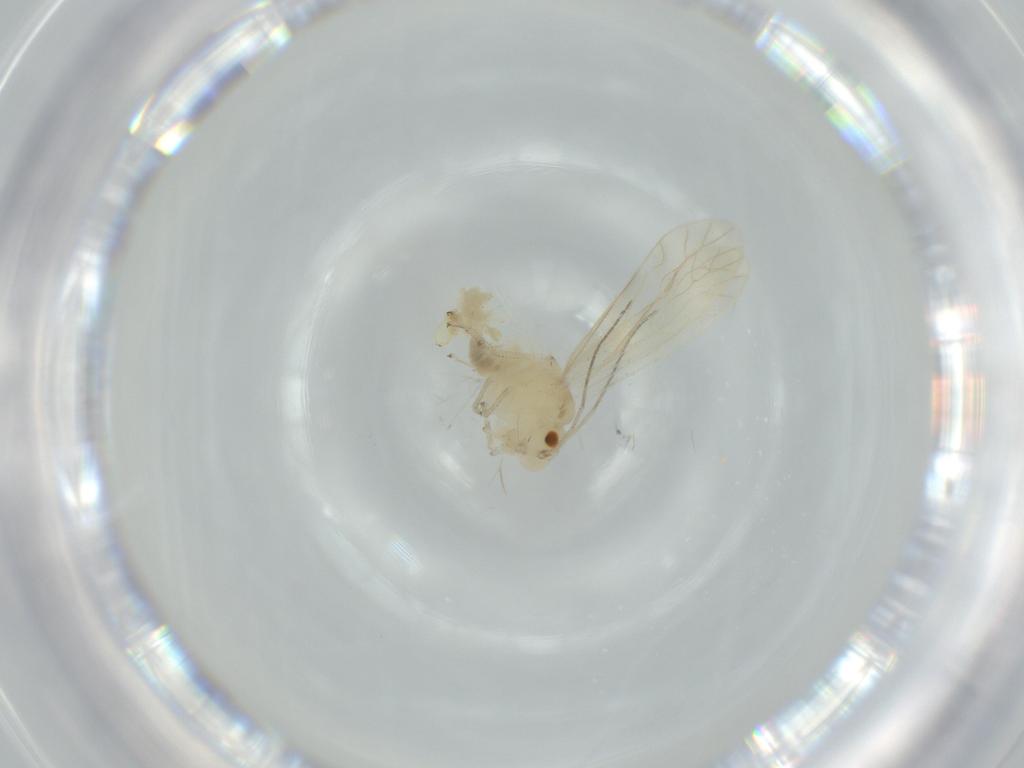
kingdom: Animalia
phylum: Arthropoda
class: Insecta
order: Psocodea
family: Caeciliusidae
